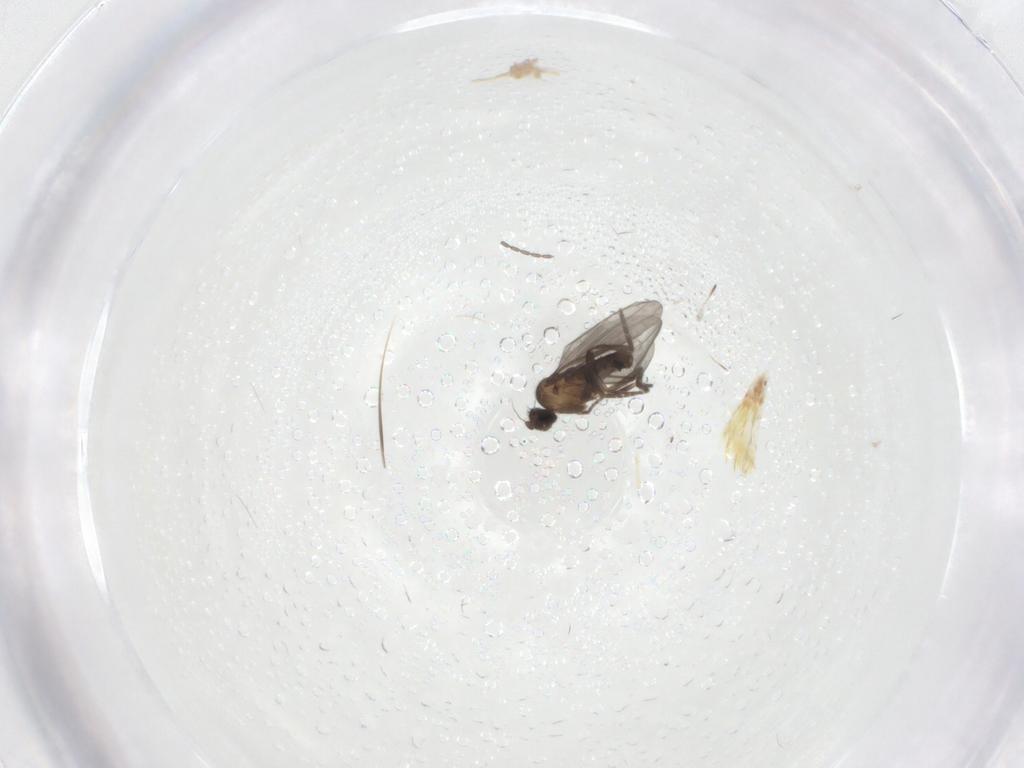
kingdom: Animalia
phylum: Arthropoda
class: Insecta
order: Diptera
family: Phoridae
